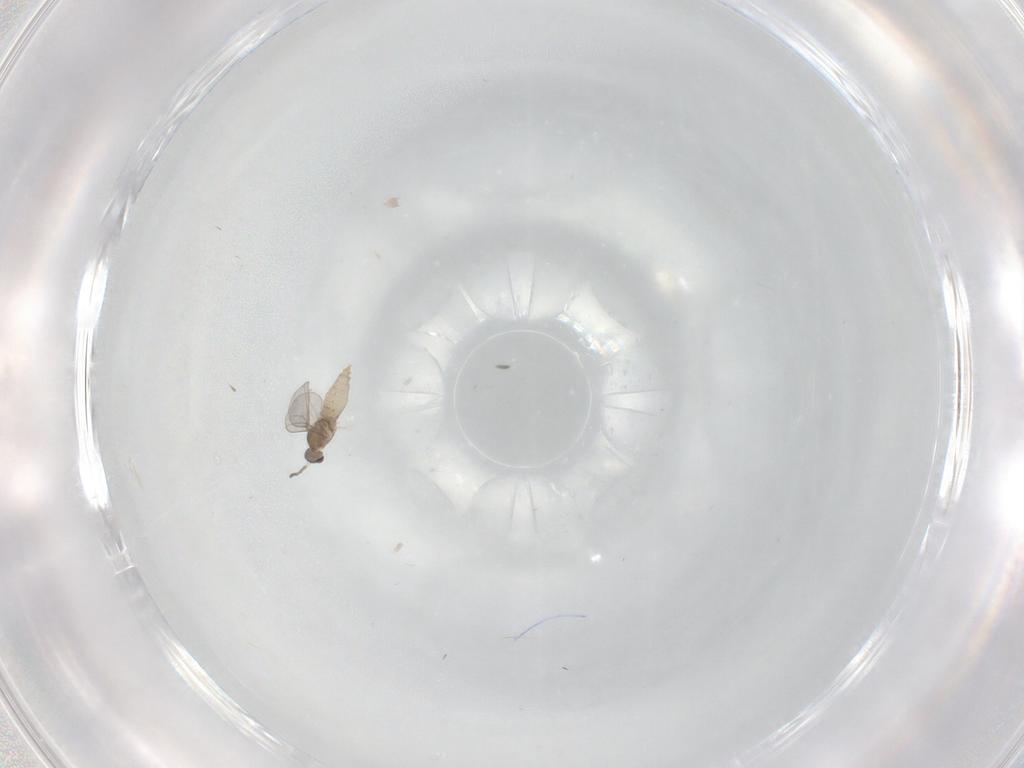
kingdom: Animalia
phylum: Arthropoda
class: Insecta
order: Diptera
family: Cecidomyiidae
